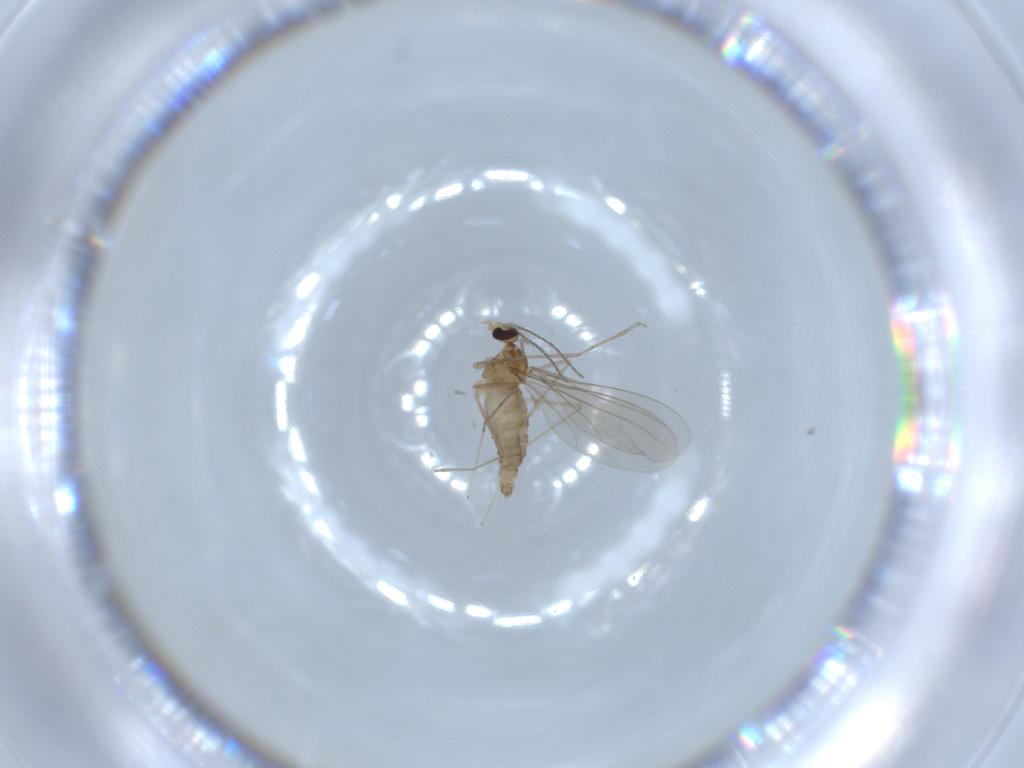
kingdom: Animalia
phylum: Arthropoda
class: Insecta
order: Diptera
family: Cecidomyiidae
